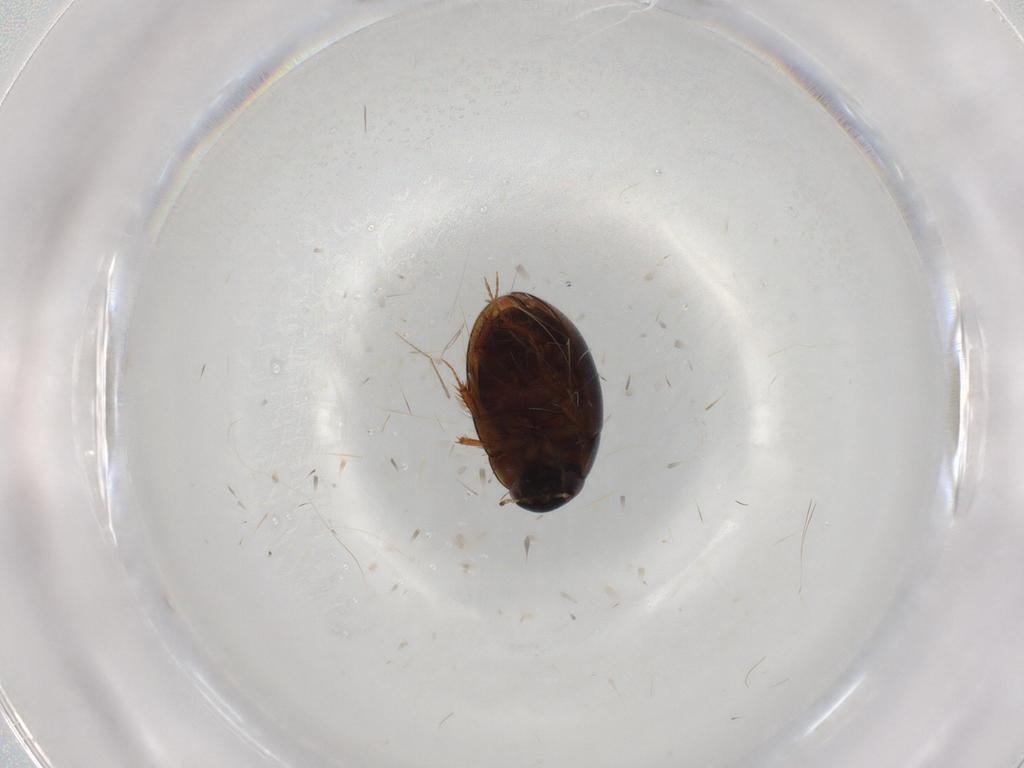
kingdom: Animalia
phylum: Arthropoda
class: Insecta
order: Coleoptera
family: Hydrophilidae
